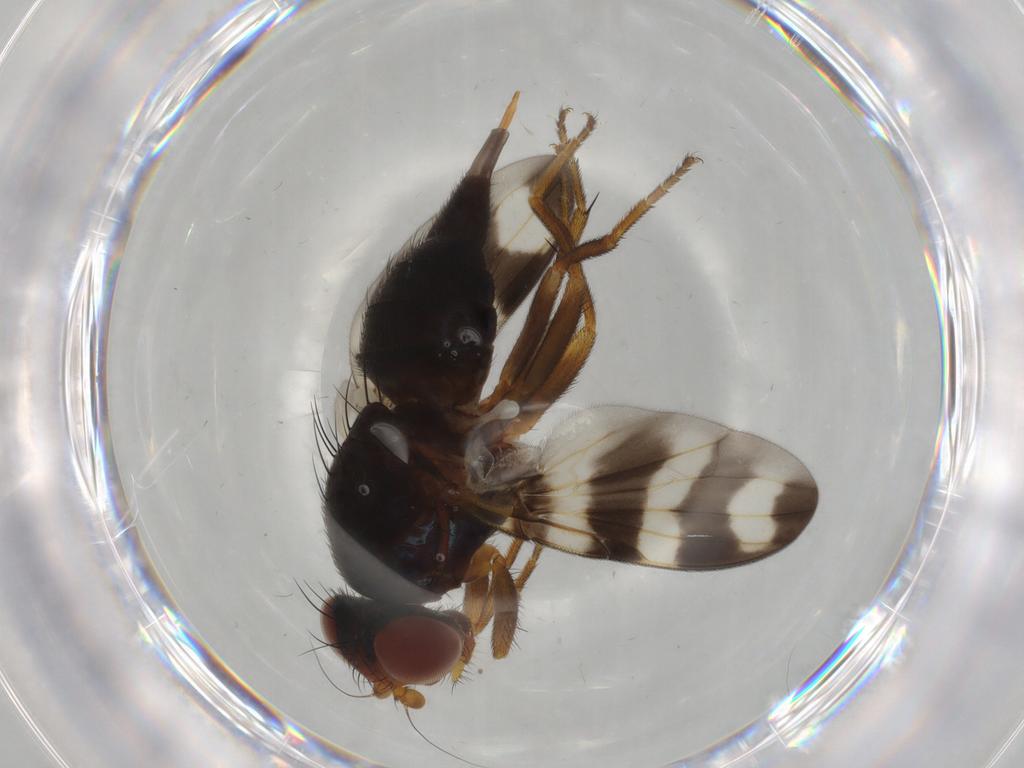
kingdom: Animalia
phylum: Arthropoda
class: Insecta
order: Diptera
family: Ulidiidae
